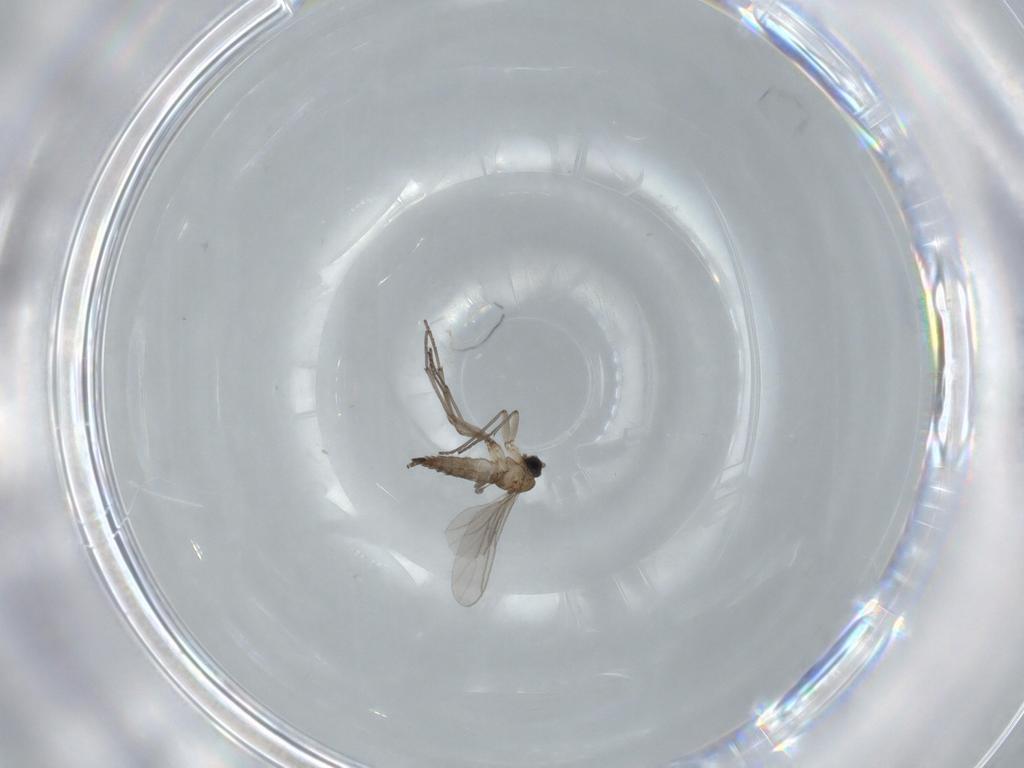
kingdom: Animalia
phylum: Arthropoda
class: Insecta
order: Diptera
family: Sciaridae
